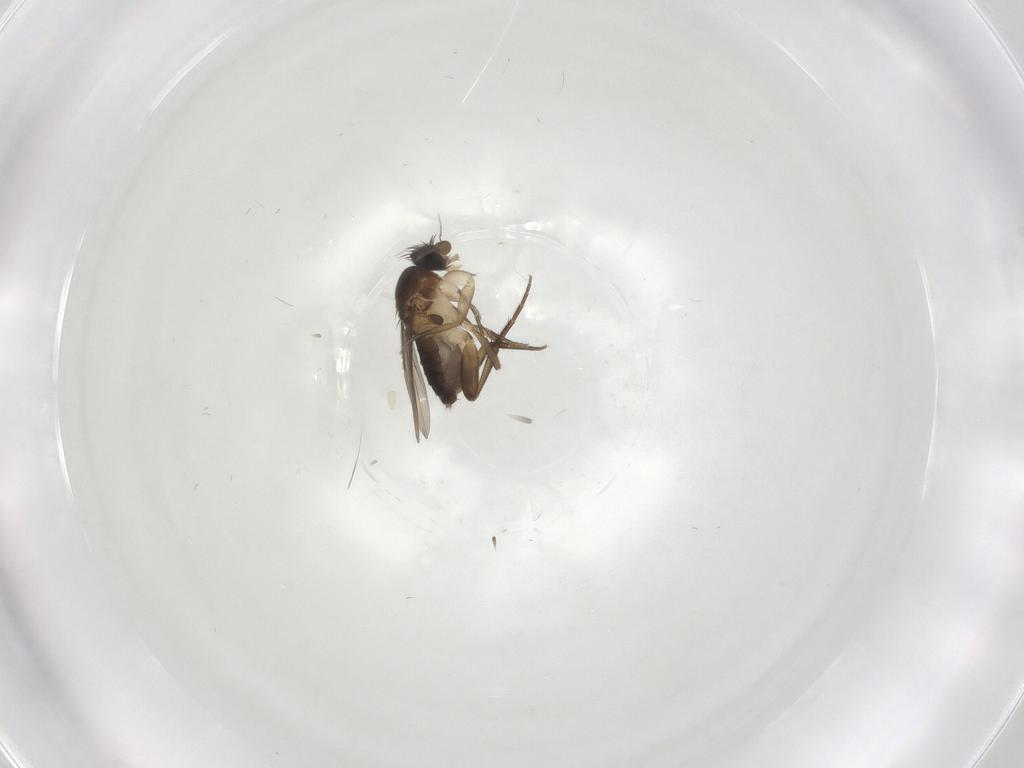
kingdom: Animalia
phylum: Arthropoda
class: Insecta
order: Diptera
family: Phoridae
